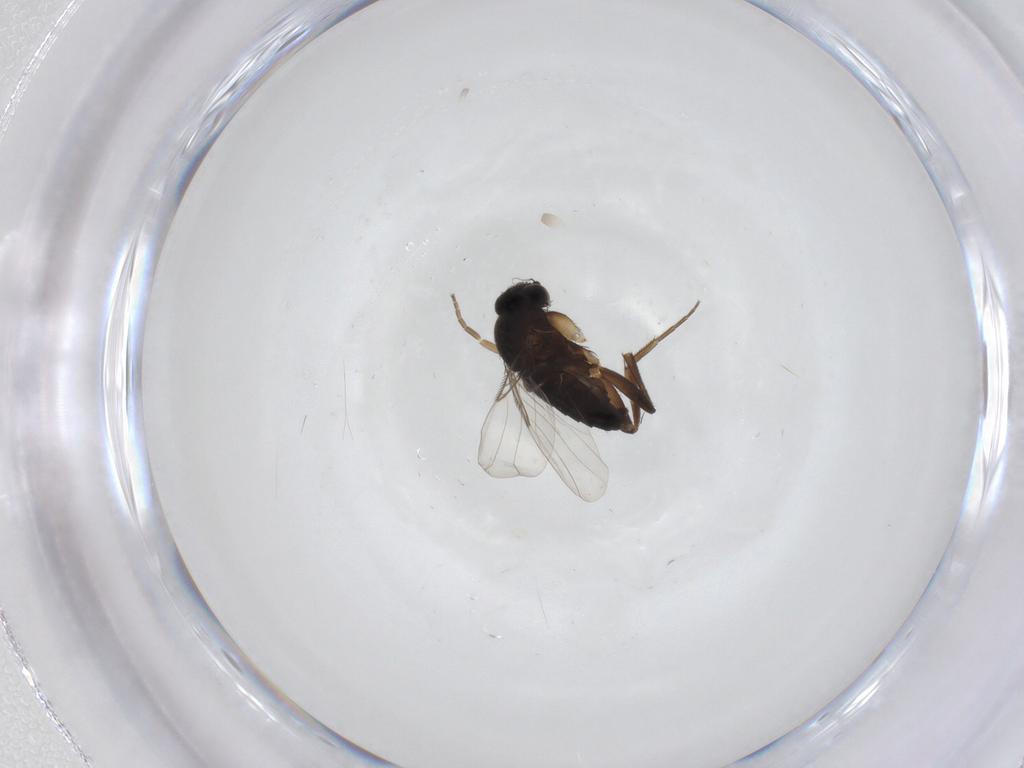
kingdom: Animalia
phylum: Arthropoda
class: Insecta
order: Diptera
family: Phoridae
